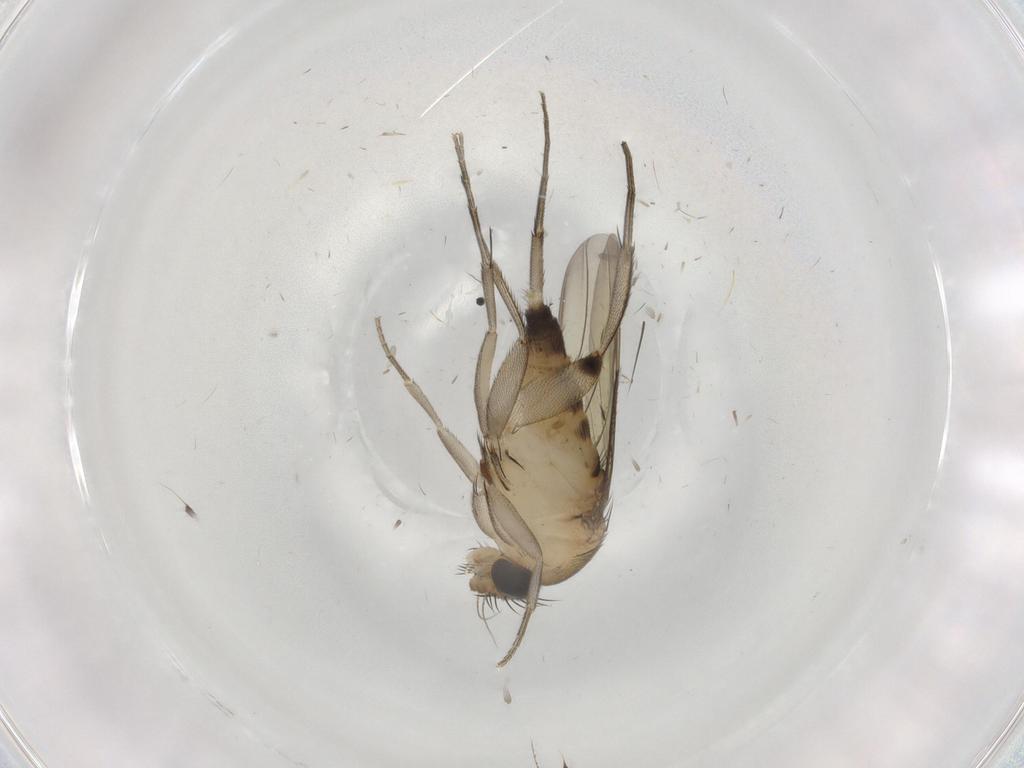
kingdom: Animalia
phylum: Arthropoda
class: Insecta
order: Diptera
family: Phoridae
